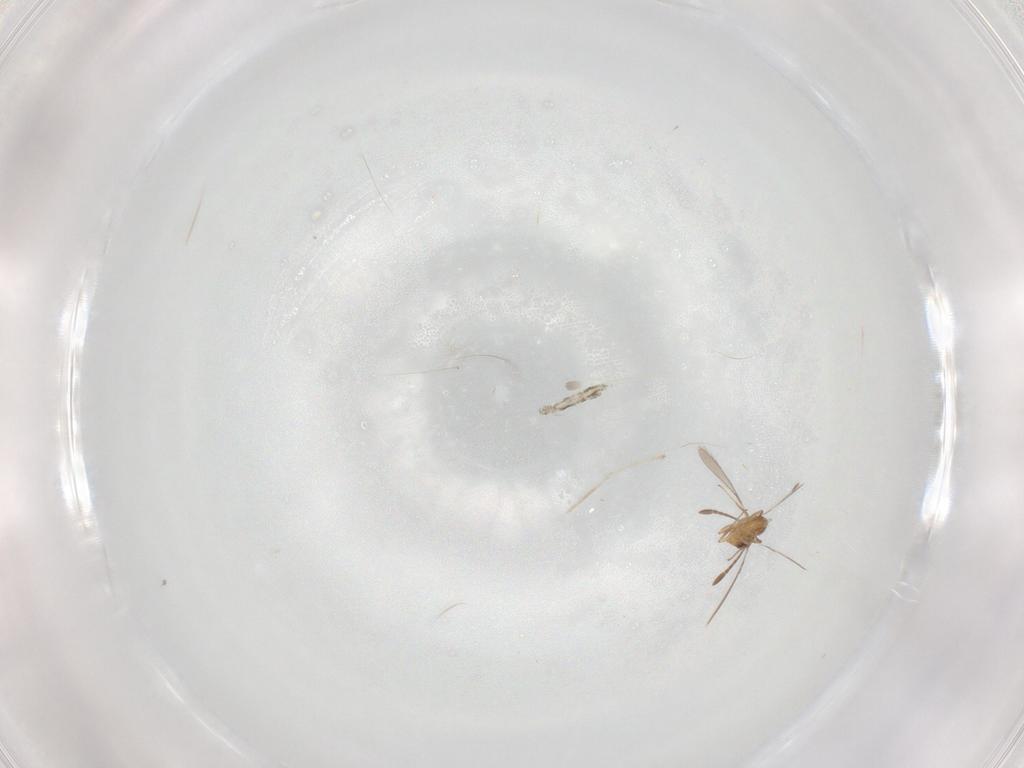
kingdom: Animalia
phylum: Arthropoda
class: Insecta
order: Hymenoptera
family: Mymaridae
